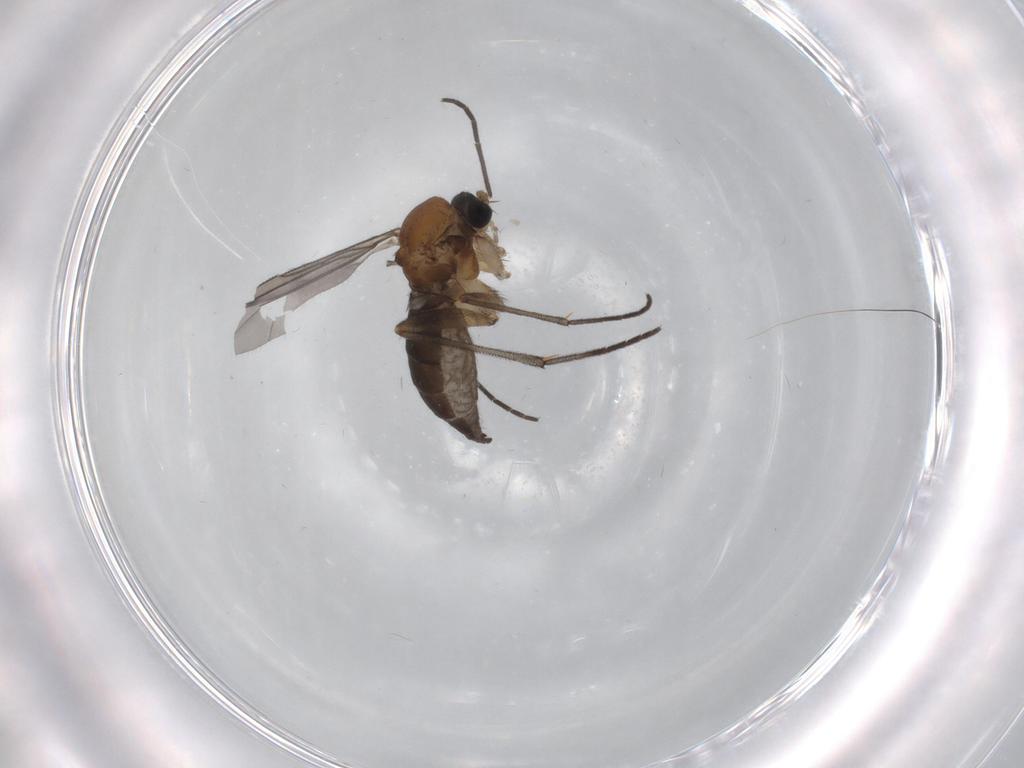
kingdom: Animalia
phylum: Arthropoda
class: Insecta
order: Diptera
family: Sciaridae
